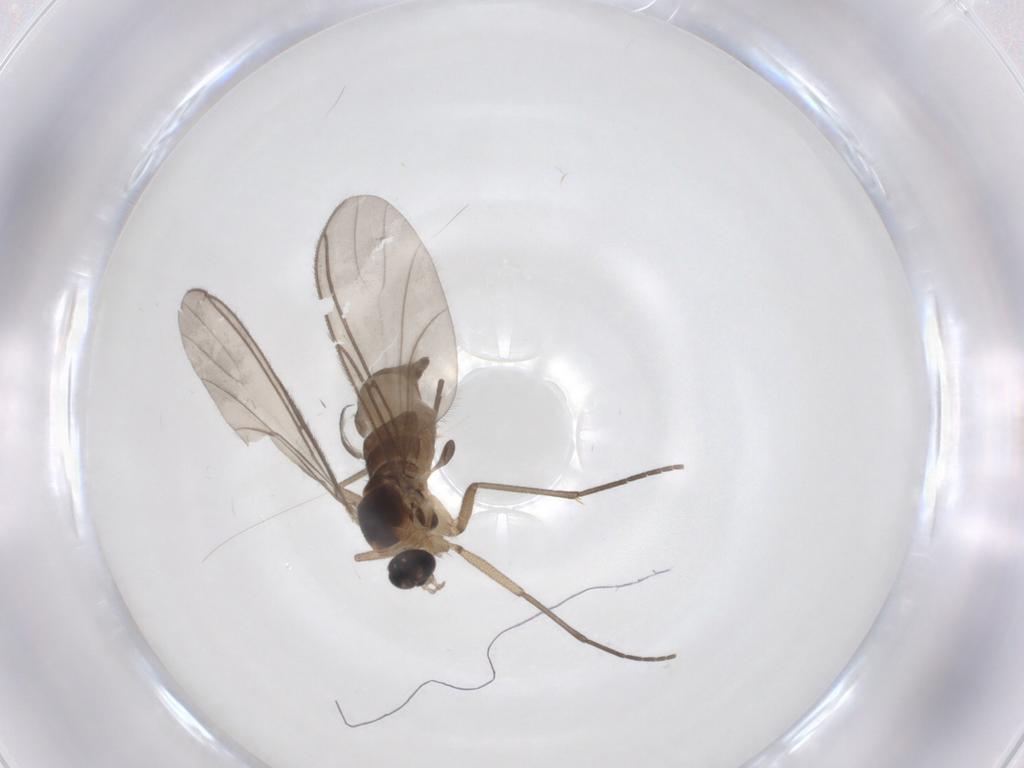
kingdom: Animalia
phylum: Arthropoda
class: Insecta
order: Diptera
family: Sciaridae
